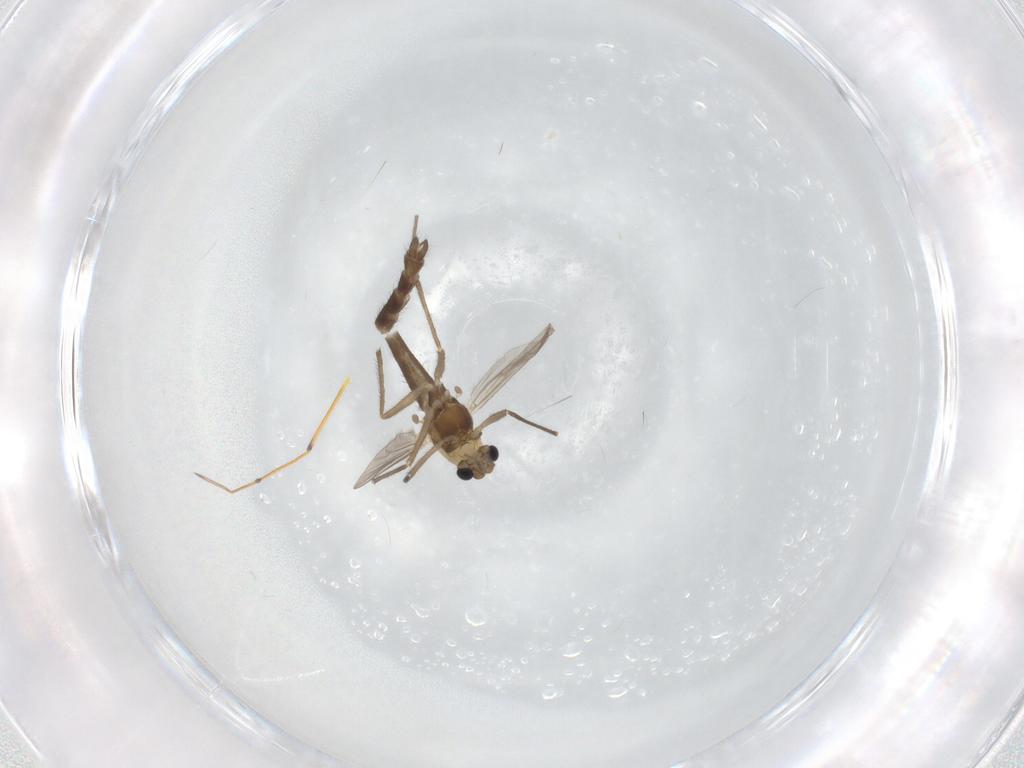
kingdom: Animalia
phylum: Arthropoda
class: Insecta
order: Diptera
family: Chironomidae
